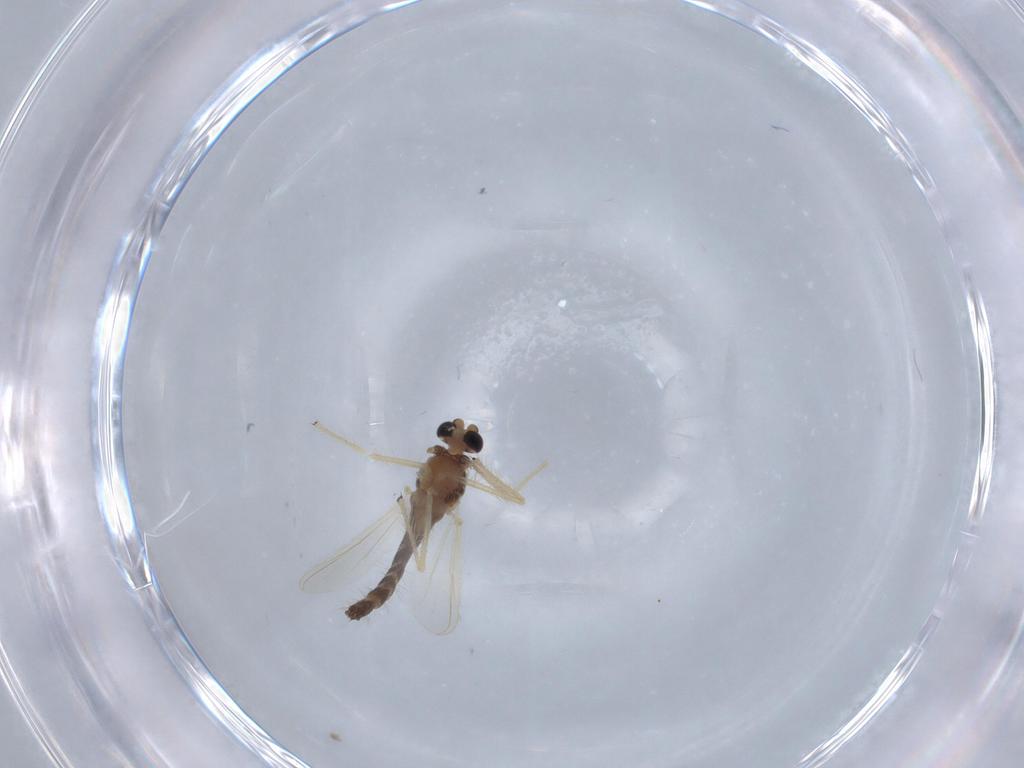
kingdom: Animalia
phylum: Arthropoda
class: Insecta
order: Diptera
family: Chironomidae
